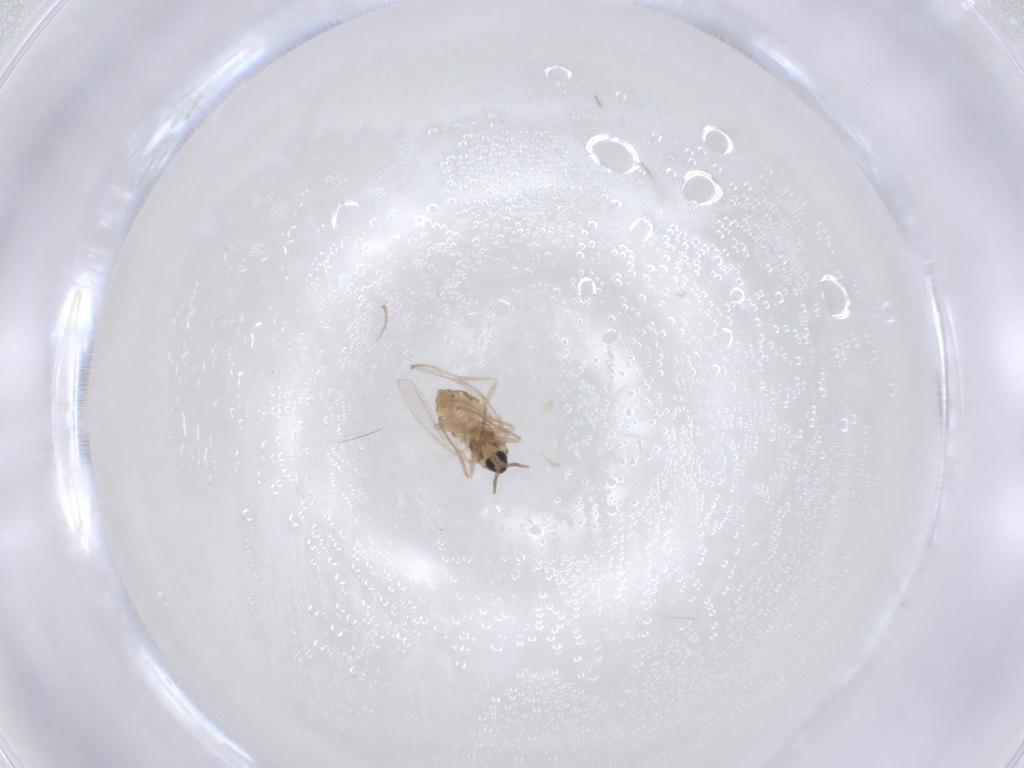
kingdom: Animalia
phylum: Arthropoda
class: Insecta
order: Diptera
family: Cecidomyiidae
